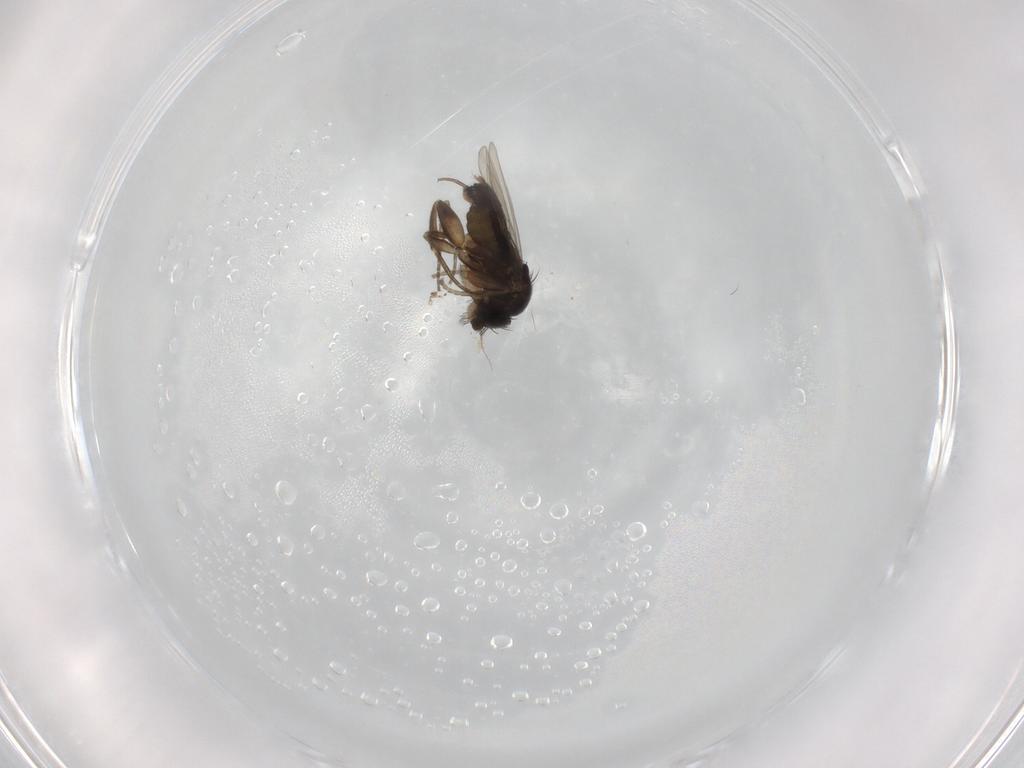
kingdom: Animalia
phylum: Arthropoda
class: Insecta
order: Diptera
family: Phoridae
